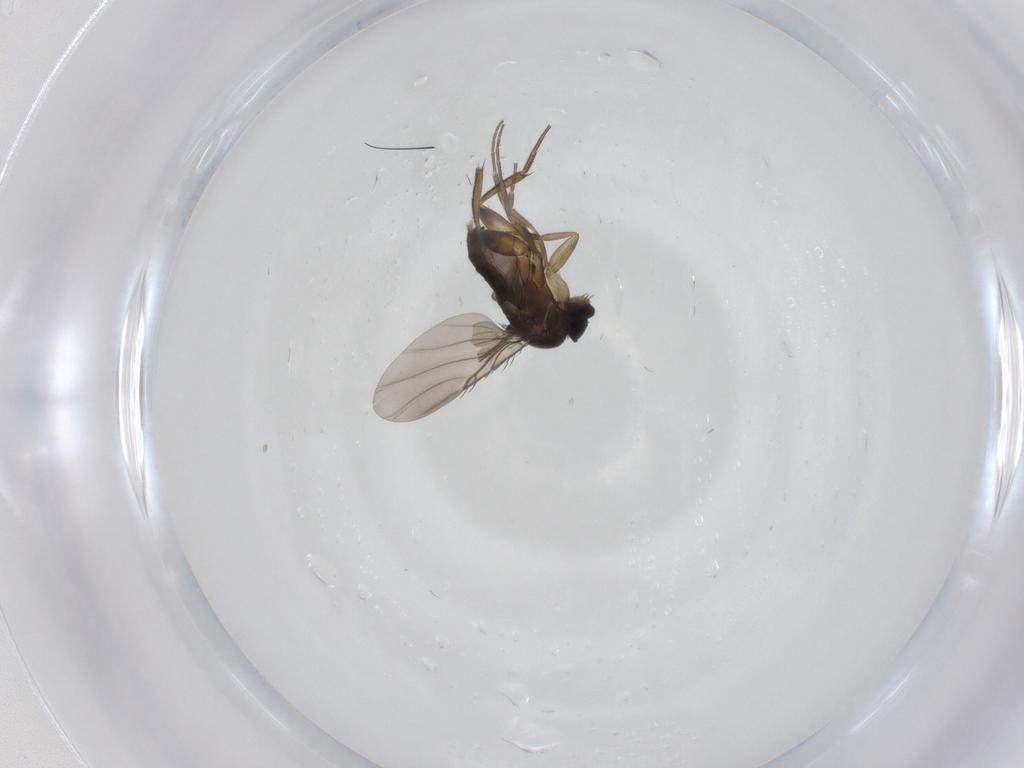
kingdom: Animalia
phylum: Arthropoda
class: Insecta
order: Diptera
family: Phoridae
